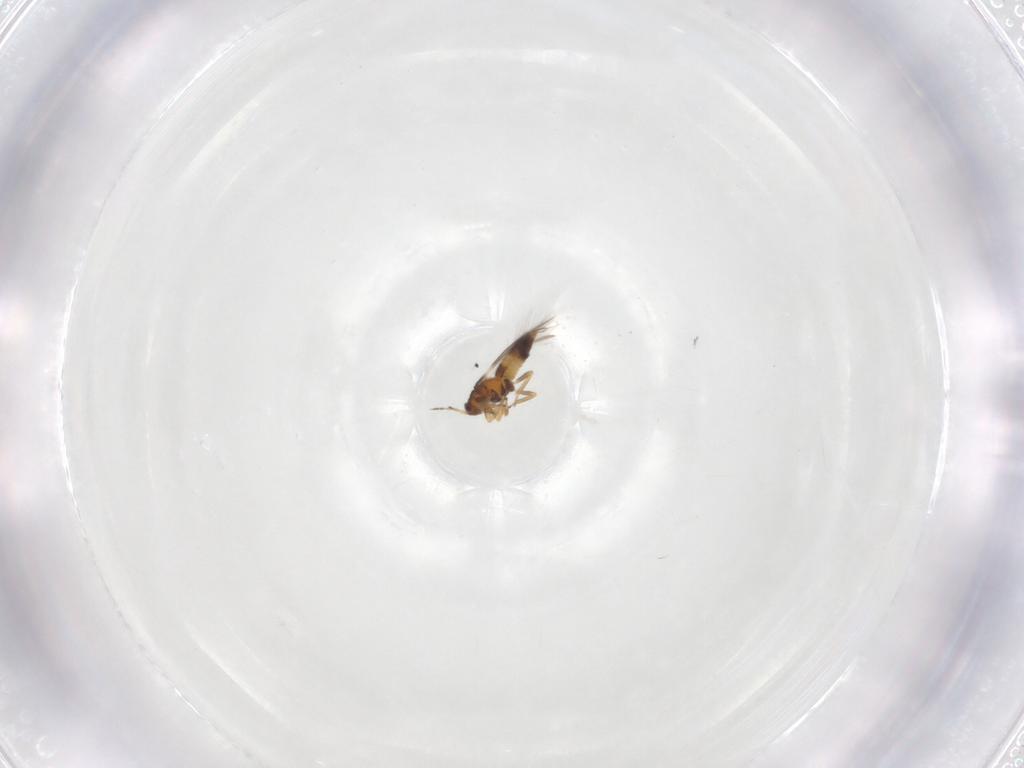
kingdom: Animalia
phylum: Arthropoda
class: Insecta
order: Diptera
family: Cecidomyiidae
